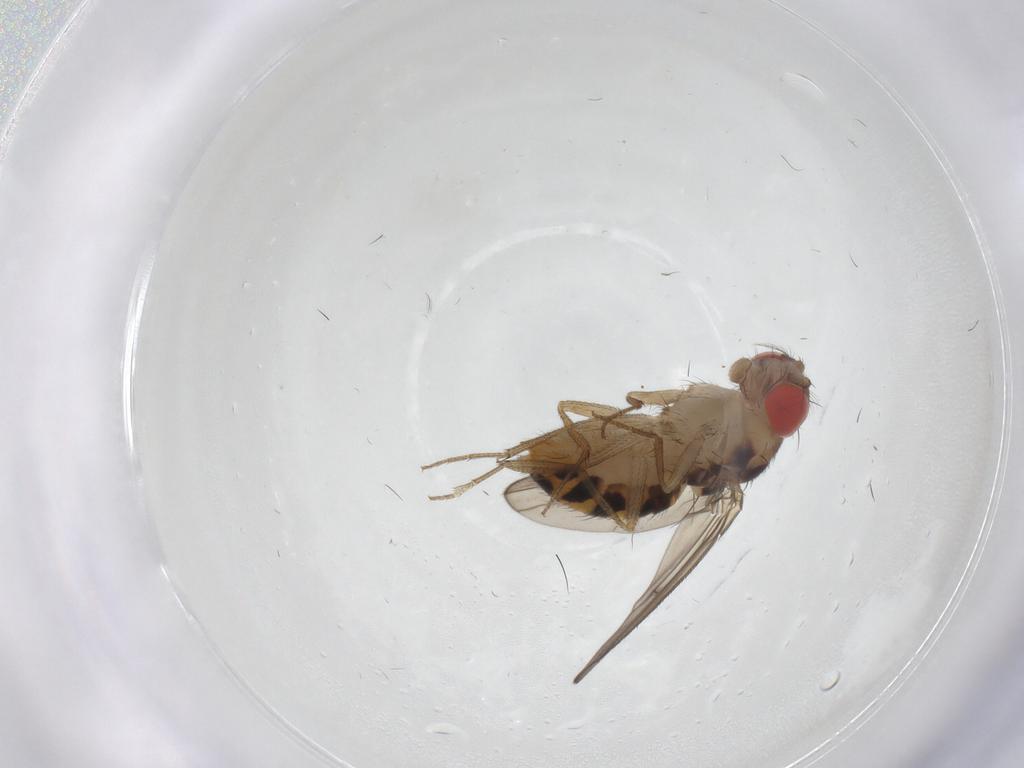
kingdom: Animalia
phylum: Arthropoda
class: Insecta
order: Diptera
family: Drosophilidae
